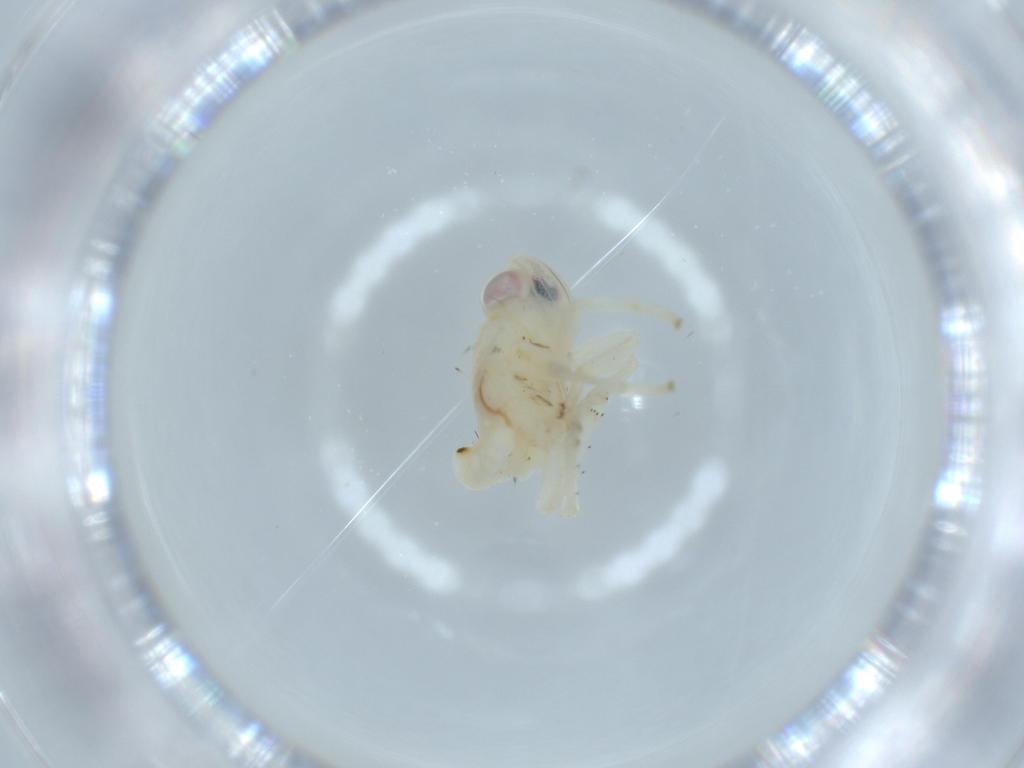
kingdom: Animalia
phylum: Arthropoda
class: Insecta
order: Hemiptera
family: Nogodinidae
